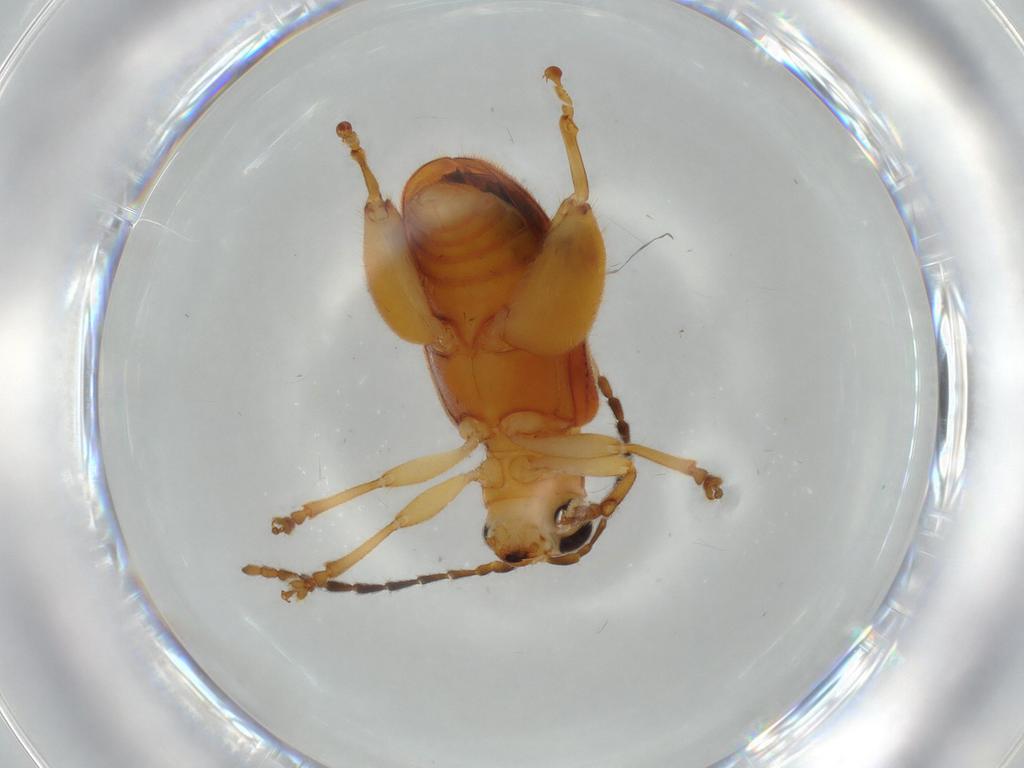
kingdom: Animalia
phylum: Arthropoda
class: Insecta
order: Coleoptera
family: Chrysomelidae
